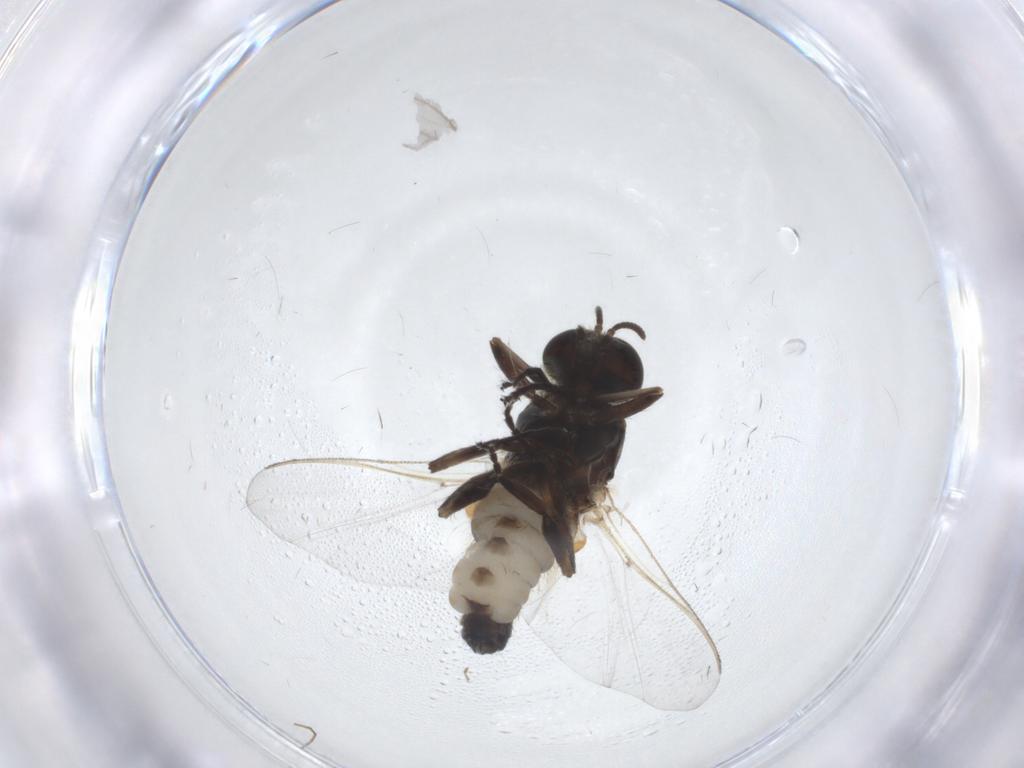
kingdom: Animalia
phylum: Arthropoda
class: Insecta
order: Diptera
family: Simuliidae
